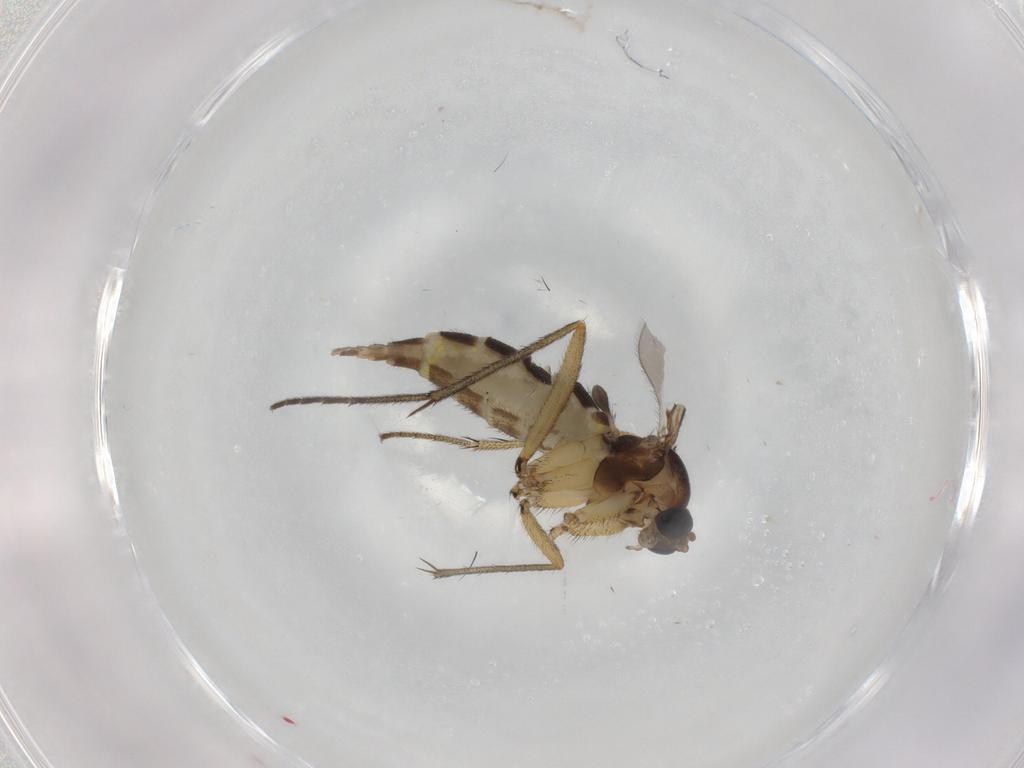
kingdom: Animalia
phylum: Arthropoda
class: Insecta
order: Diptera
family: Sciaridae
